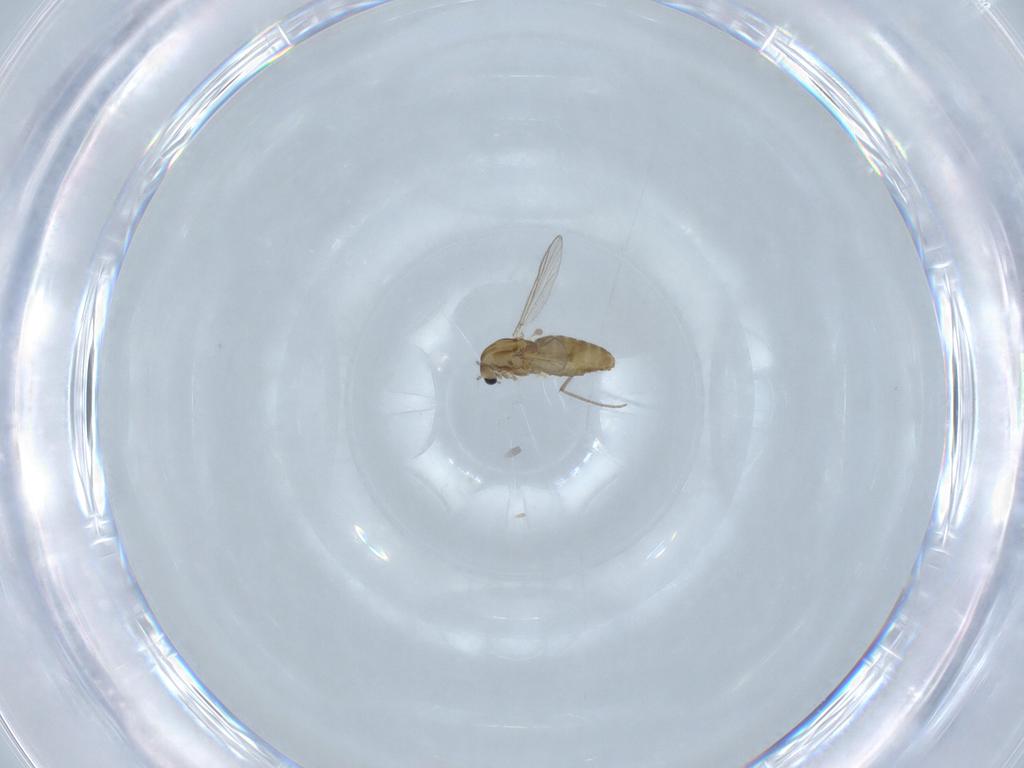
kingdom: Animalia
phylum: Arthropoda
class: Insecta
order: Diptera
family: Chironomidae
